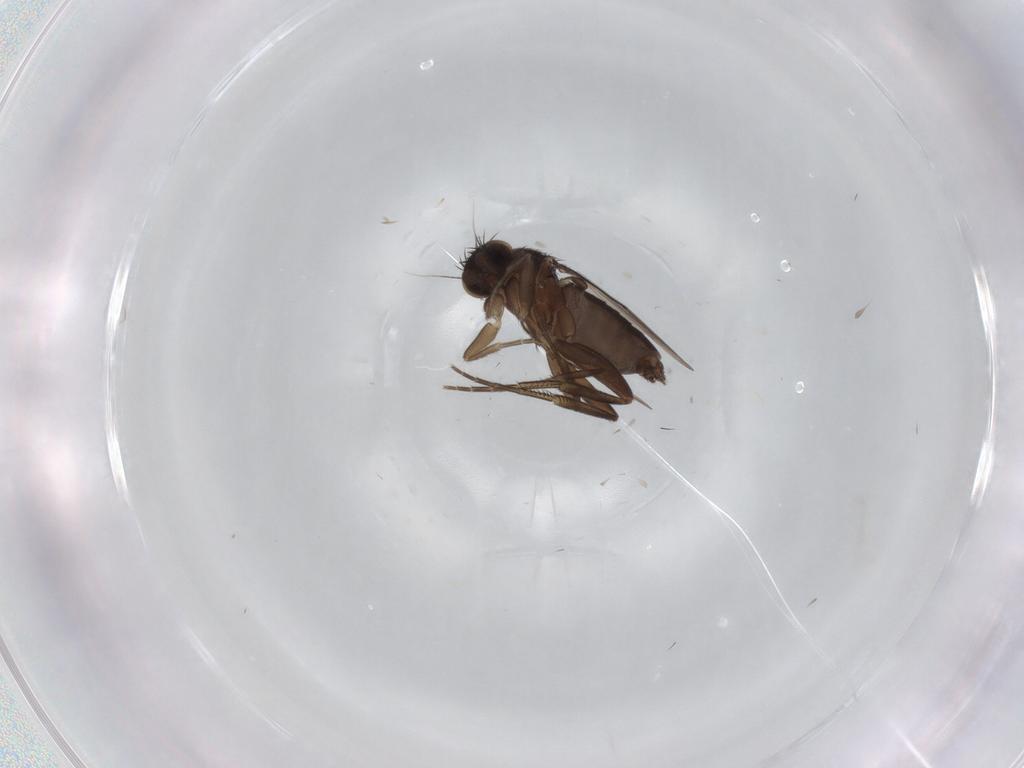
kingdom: Animalia
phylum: Arthropoda
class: Insecta
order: Diptera
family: Phoridae
